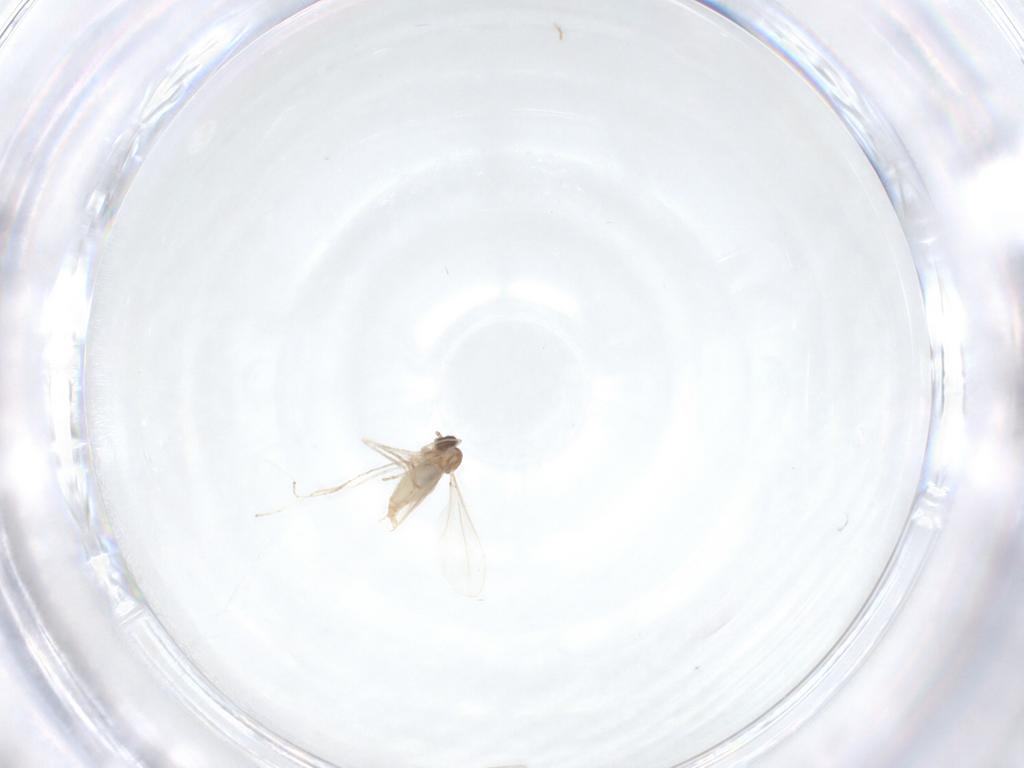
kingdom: Animalia
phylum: Arthropoda
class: Insecta
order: Diptera
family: Cecidomyiidae
